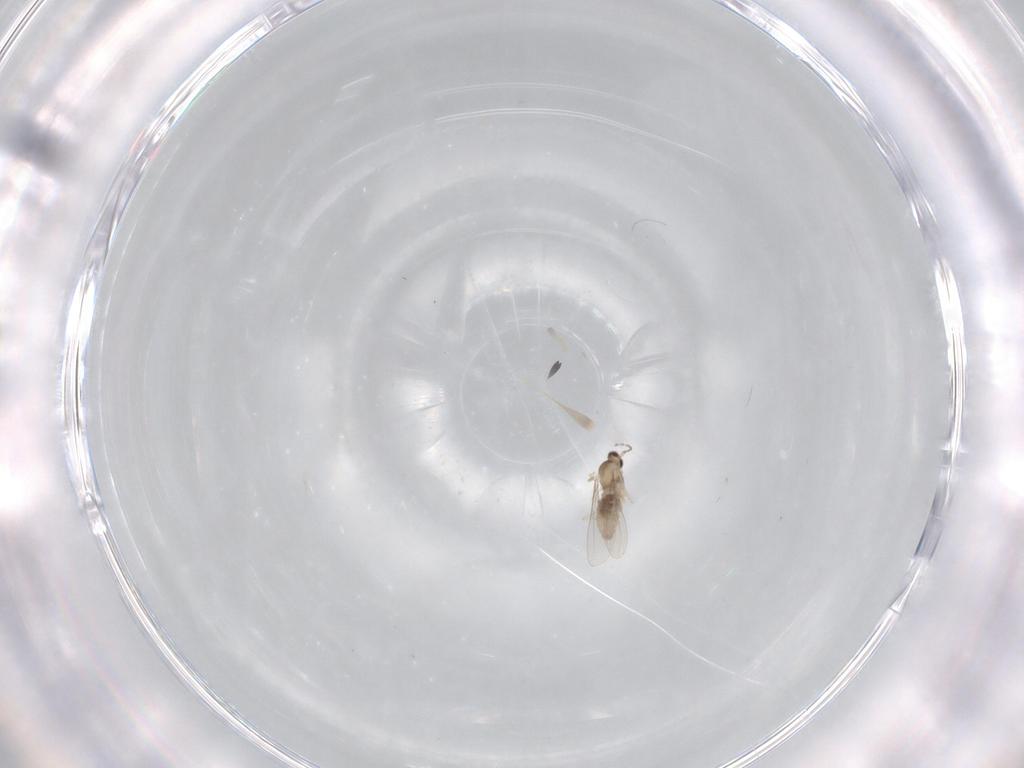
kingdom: Animalia
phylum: Arthropoda
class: Insecta
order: Diptera
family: Cecidomyiidae
